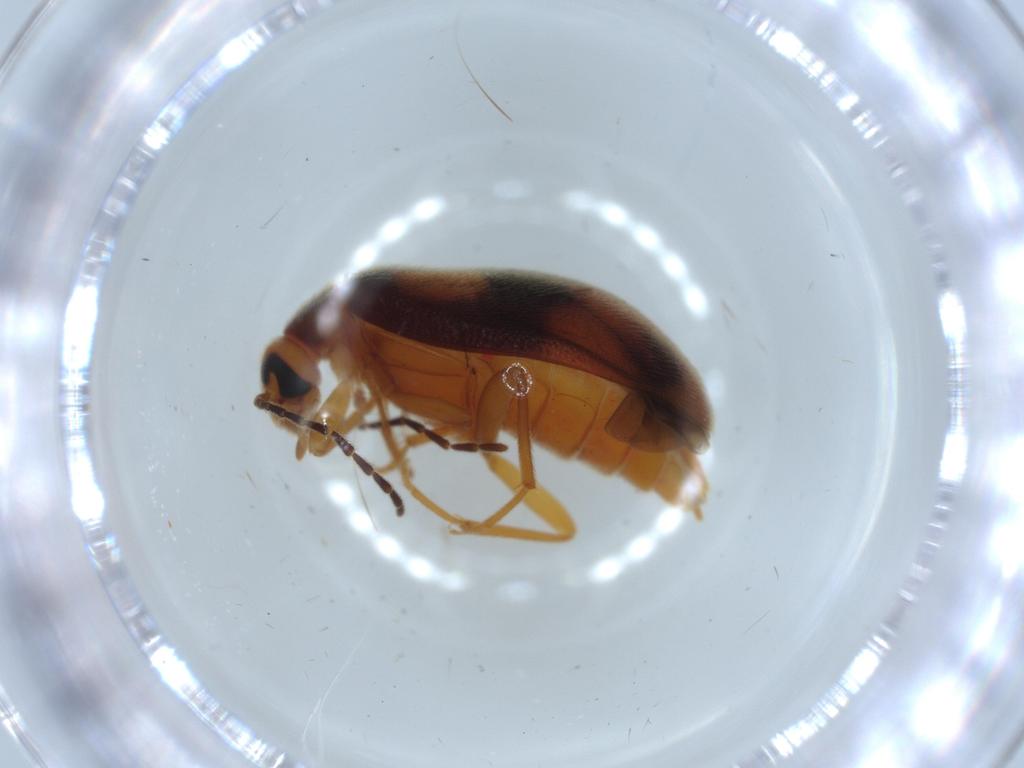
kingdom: Animalia
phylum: Arthropoda
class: Insecta
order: Coleoptera
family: Scraptiidae
